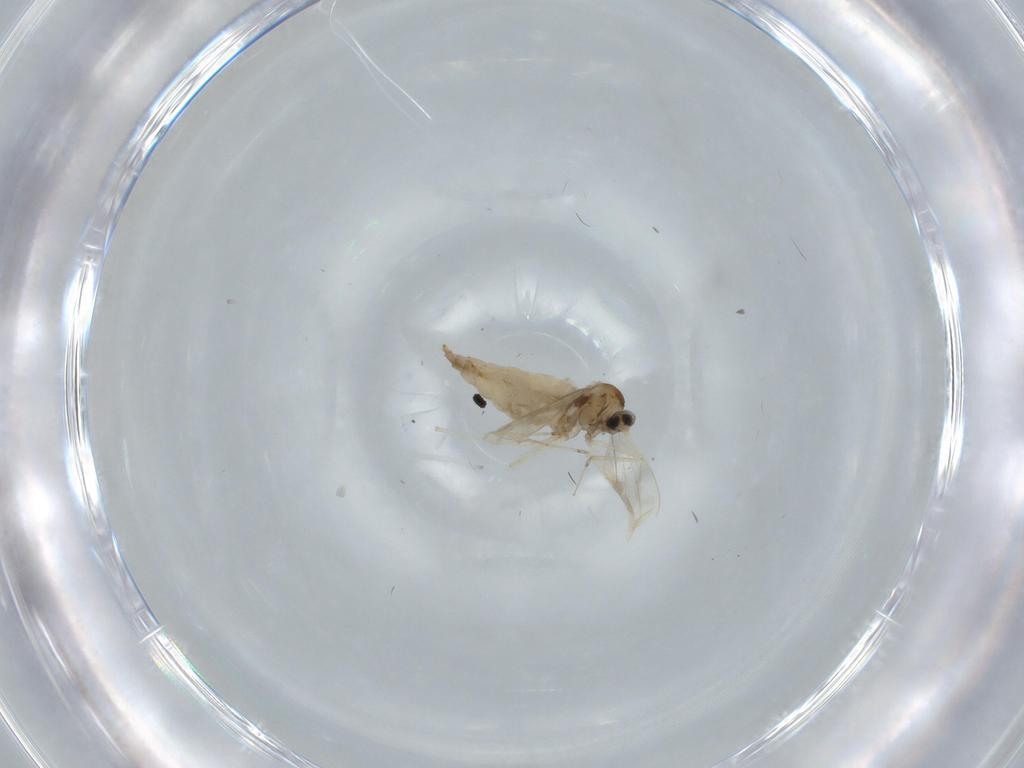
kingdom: Animalia
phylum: Arthropoda
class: Insecta
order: Diptera
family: Cecidomyiidae
